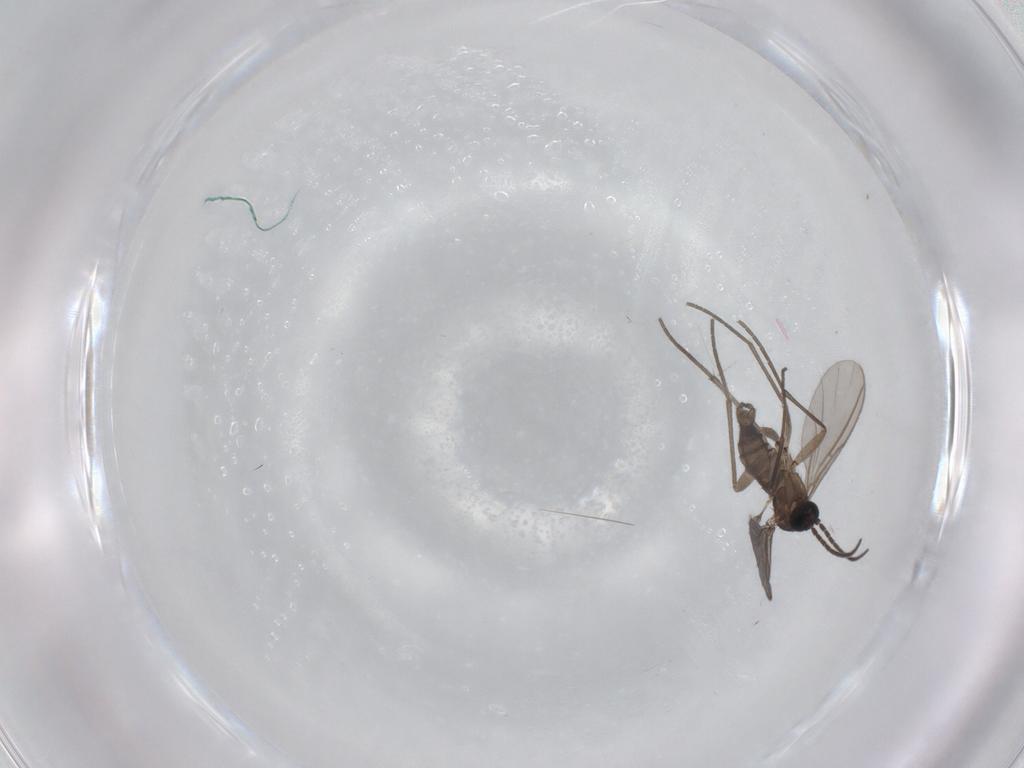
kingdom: Animalia
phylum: Arthropoda
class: Insecta
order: Diptera
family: Sciaridae
